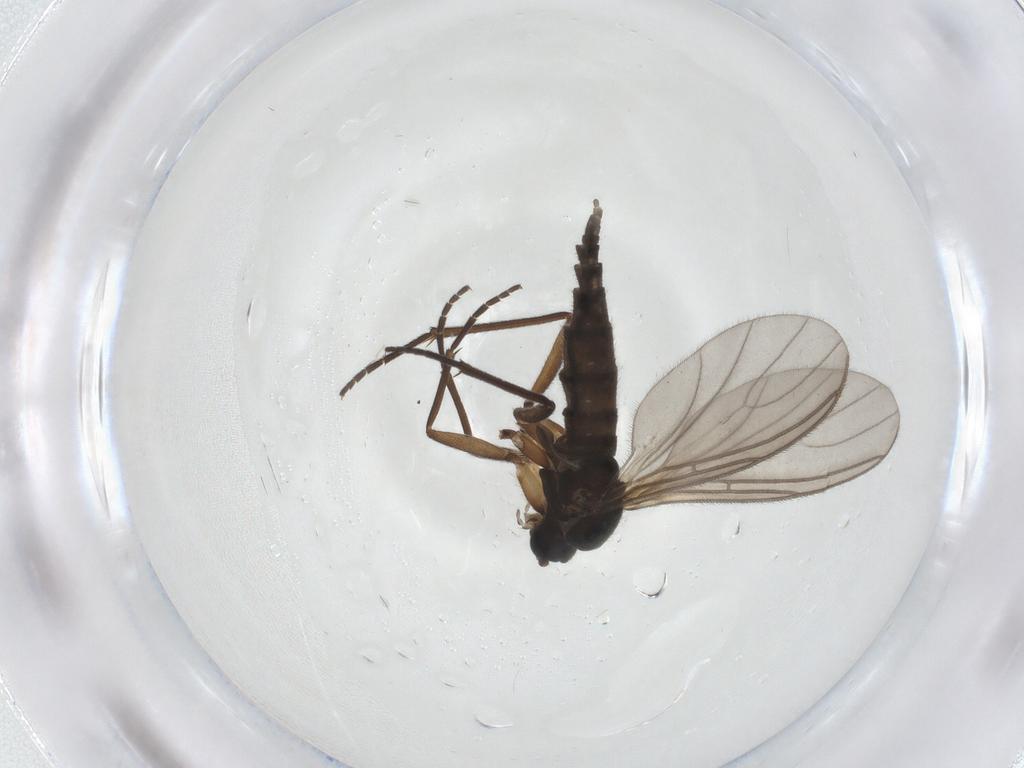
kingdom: Animalia
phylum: Arthropoda
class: Insecta
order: Diptera
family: Sciaridae
